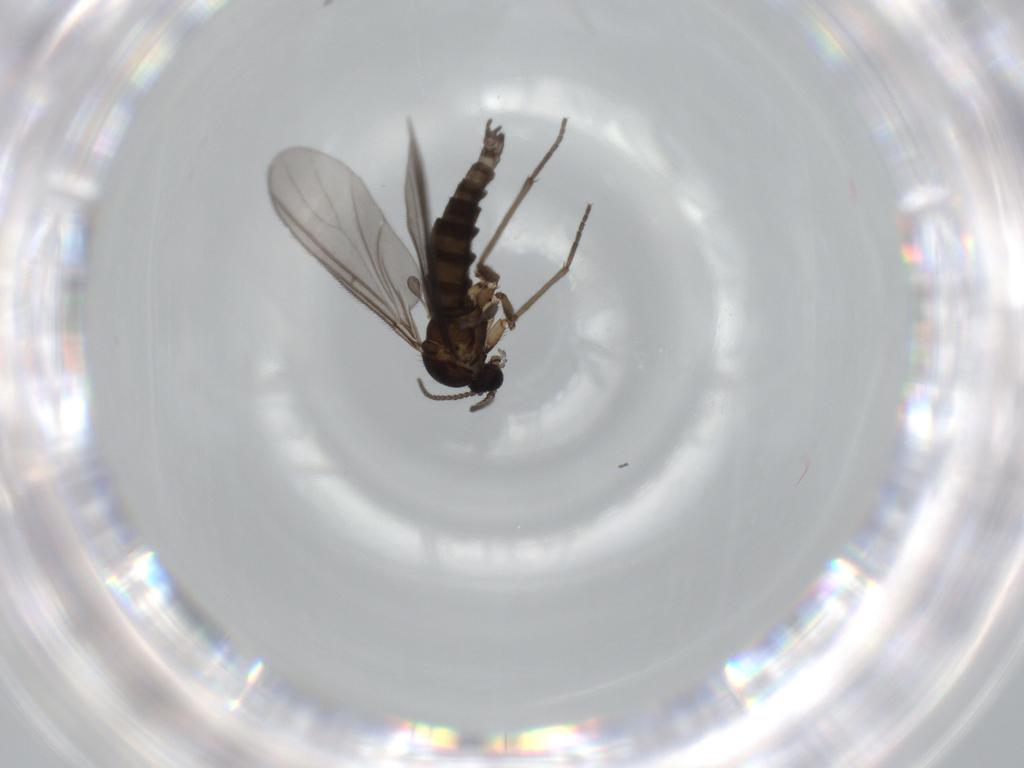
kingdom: Animalia
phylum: Arthropoda
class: Insecta
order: Diptera
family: Sciaridae
